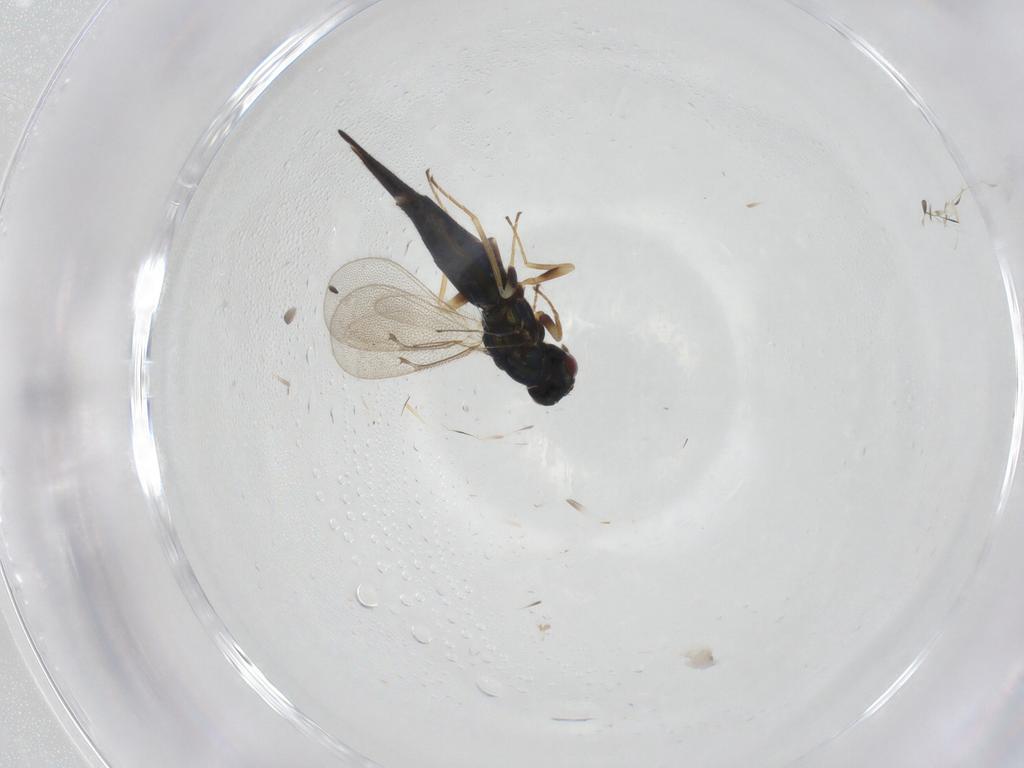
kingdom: Animalia
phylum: Arthropoda
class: Insecta
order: Hymenoptera
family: Eulophidae
